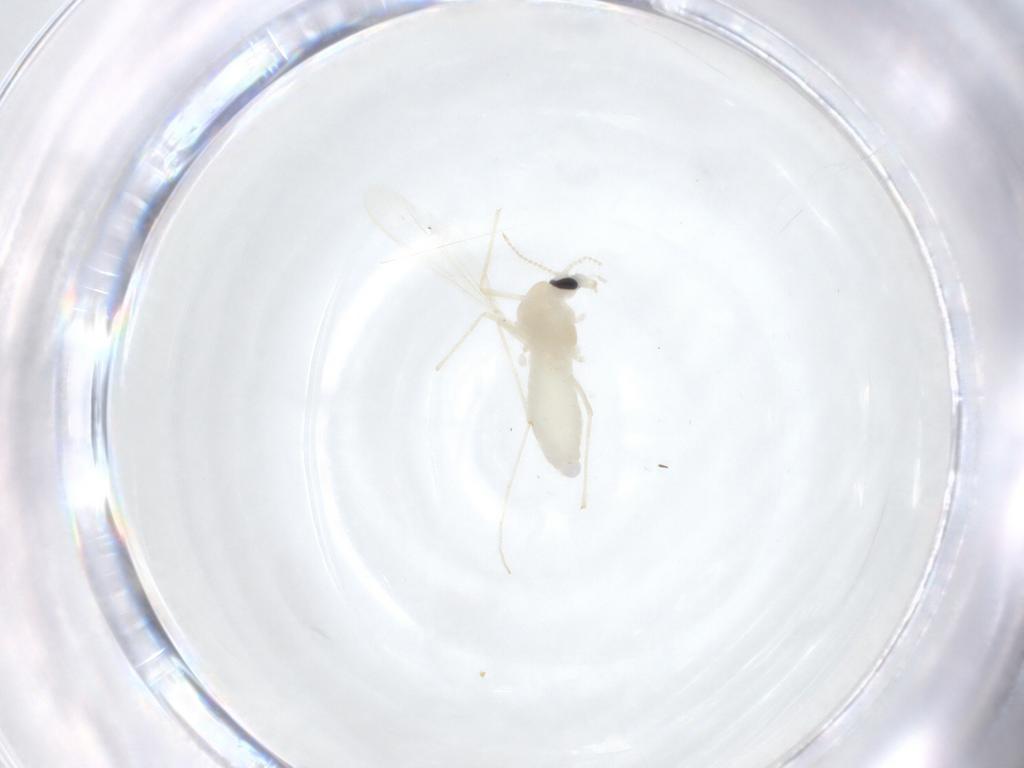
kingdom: Animalia
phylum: Arthropoda
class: Insecta
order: Diptera
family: Chironomidae
